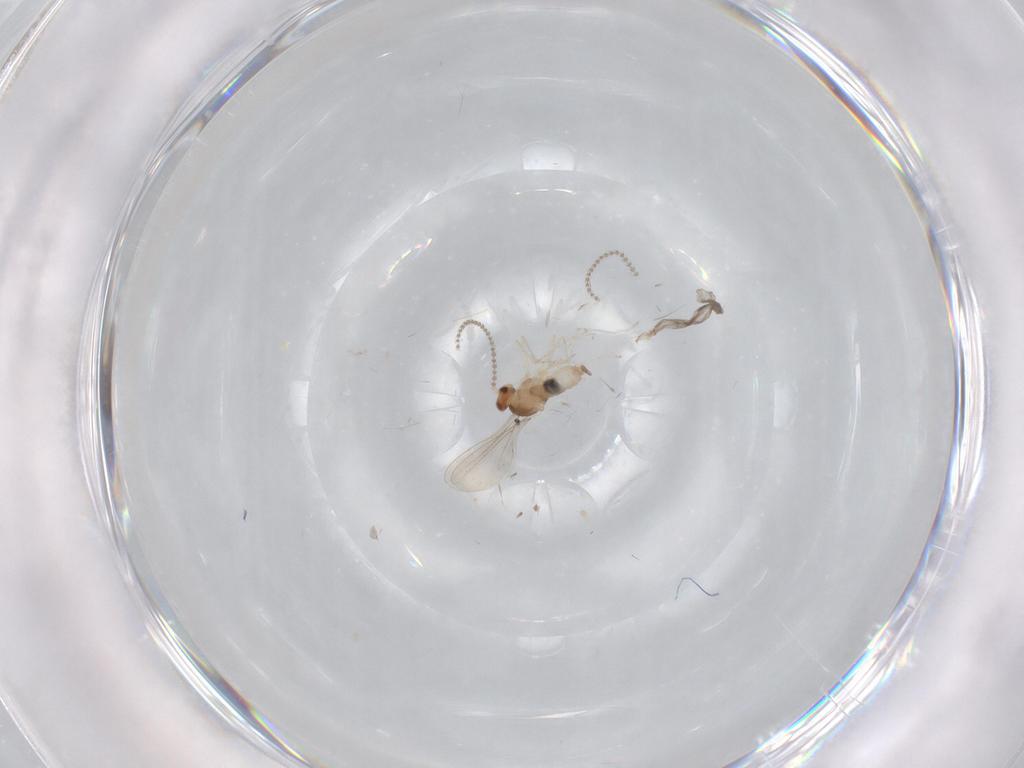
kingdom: Animalia
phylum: Arthropoda
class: Insecta
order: Diptera
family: Cecidomyiidae
